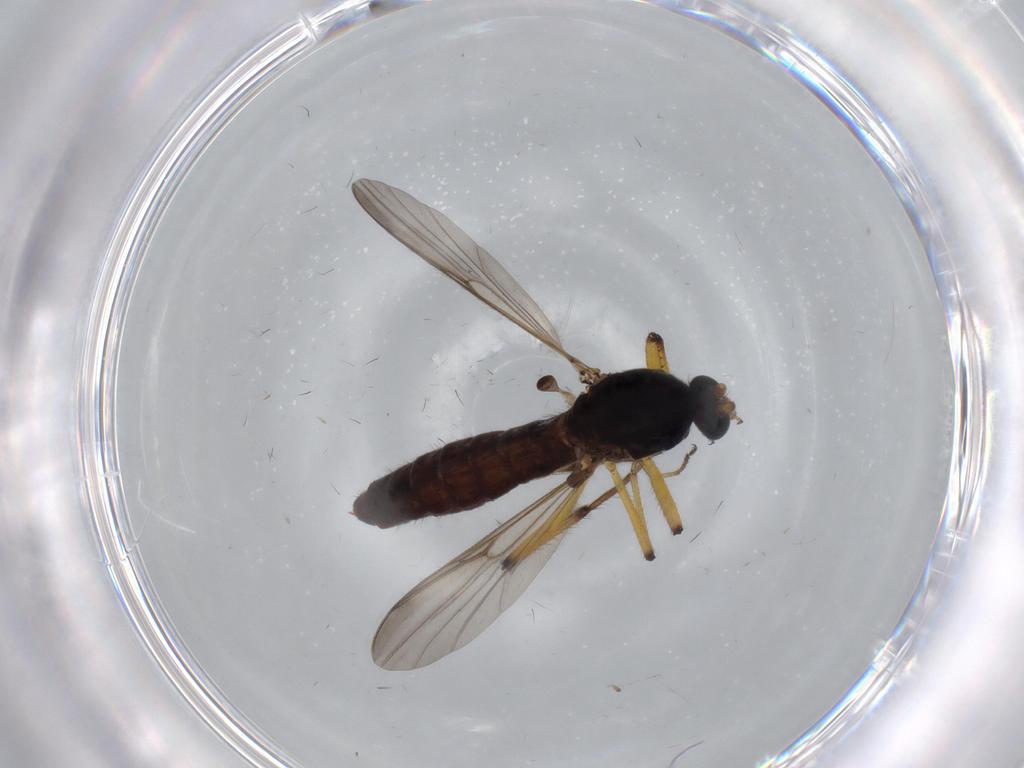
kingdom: Animalia
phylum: Arthropoda
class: Insecta
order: Diptera
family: Ceratopogonidae
